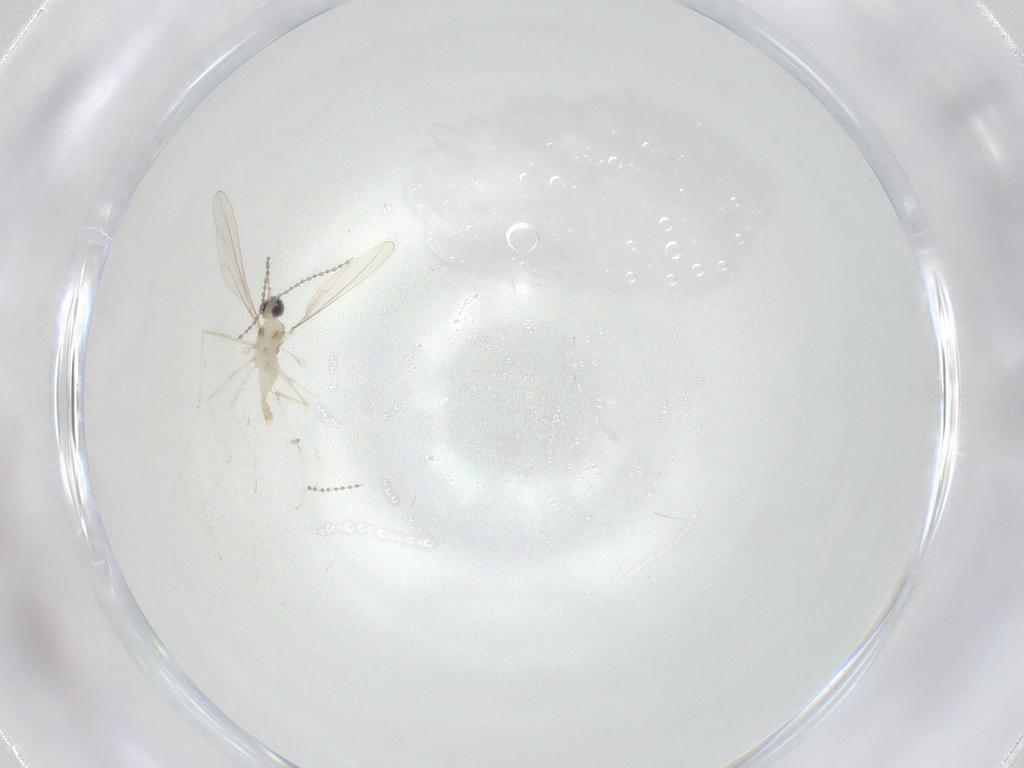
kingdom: Animalia
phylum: Arthropoda
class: Insecta
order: Diptera
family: Cecidomyiidae
